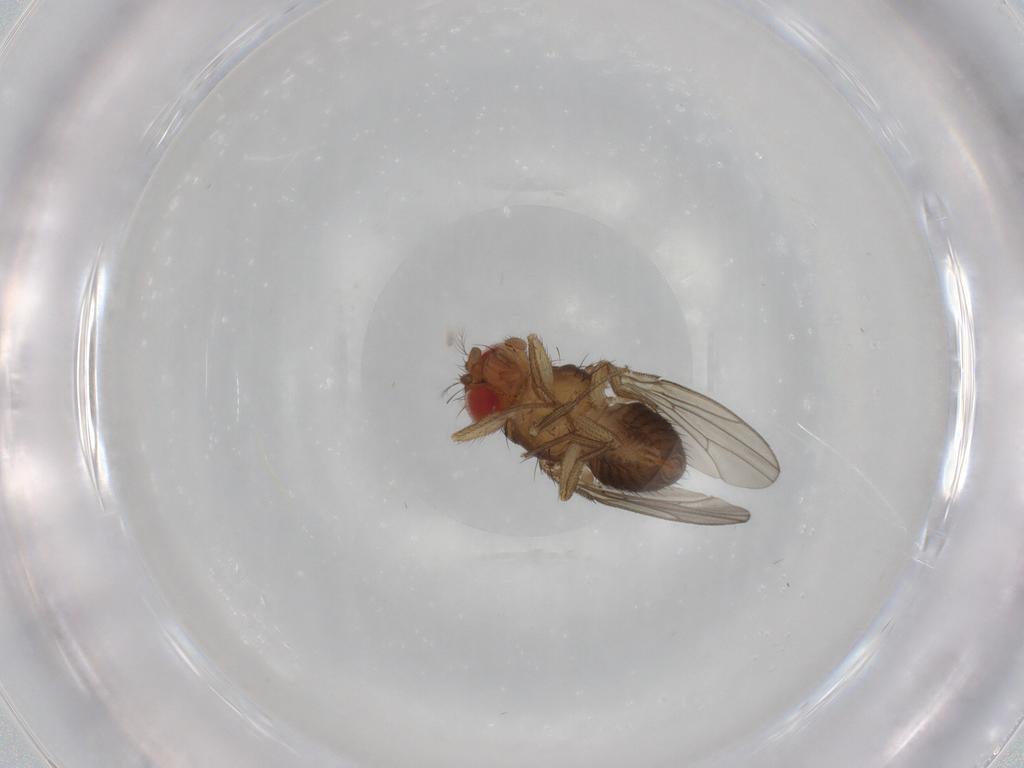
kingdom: Animalia
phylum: Arthropoda
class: Insecta
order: Diptera
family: Drosophilidae
